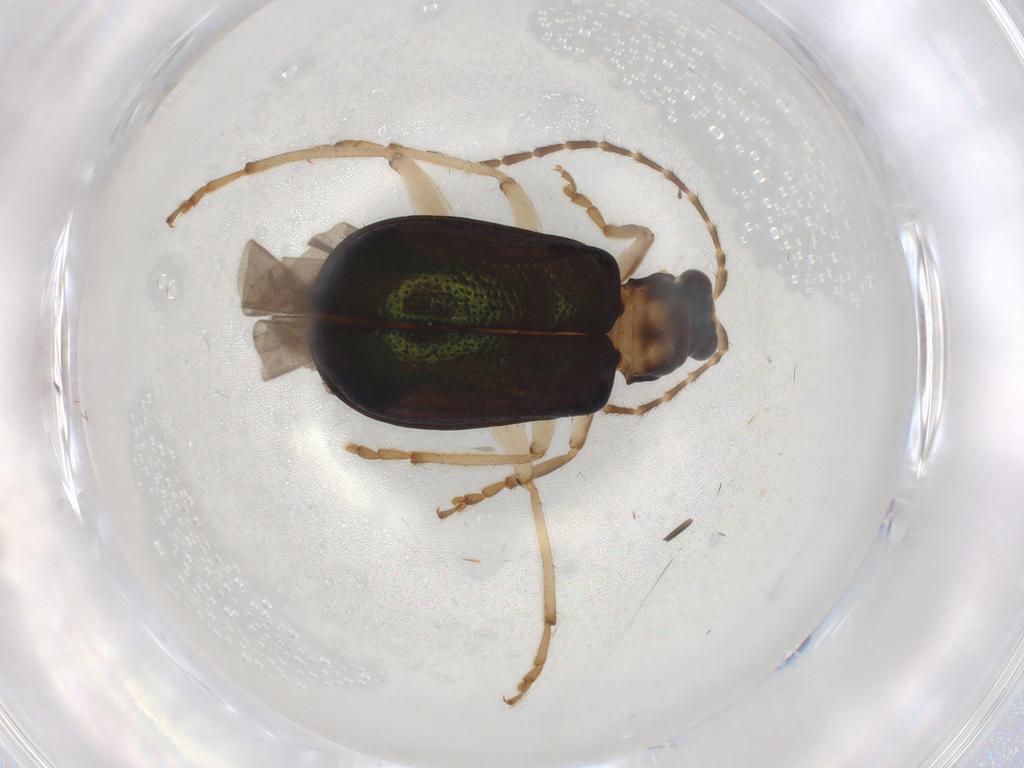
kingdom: Animalia
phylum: Arthropoda
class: Insecta
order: Coleoptera
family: Chrysomelidae
